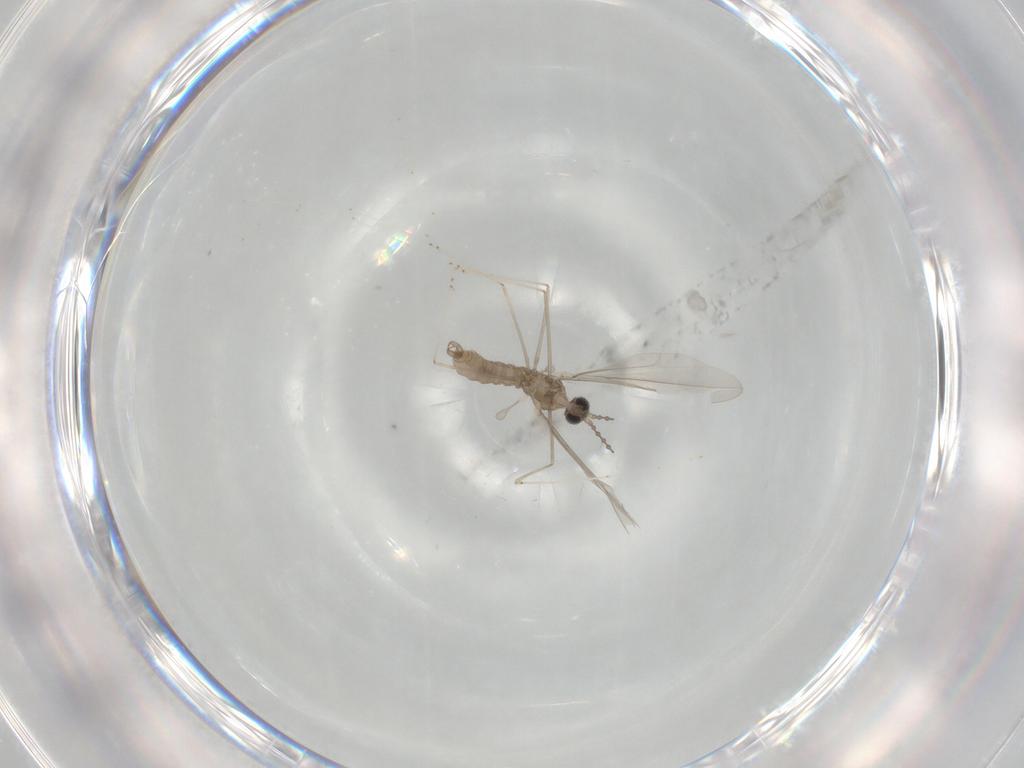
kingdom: Animalia
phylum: Arthropoda
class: Insecta
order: Diptera
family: Cecidomyiidae
